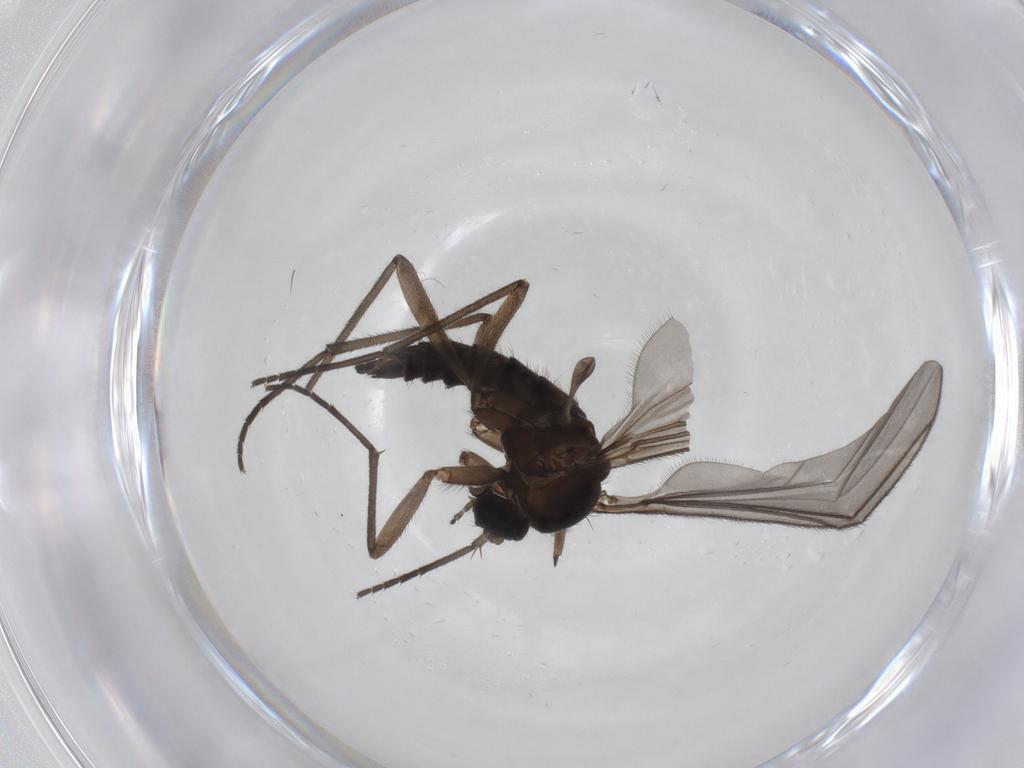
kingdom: Animalia
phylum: Arthropoda
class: Insecta
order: Diptera
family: Sciaridae
